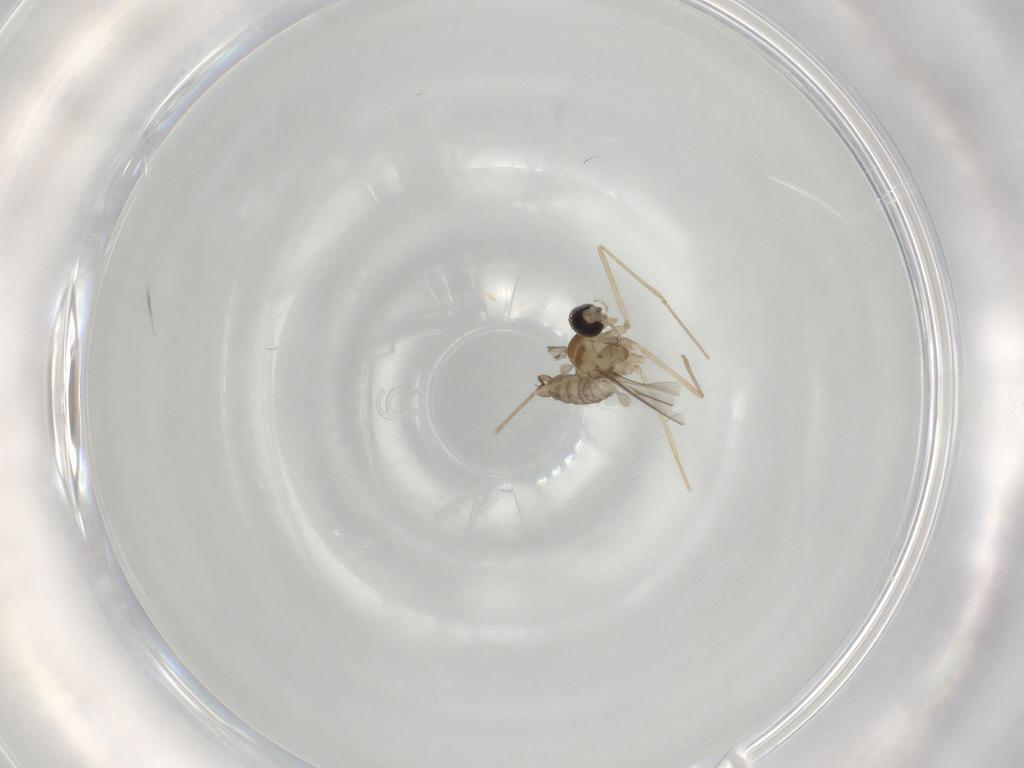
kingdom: Animalia
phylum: Arthropoda
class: Insecta
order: Diptera
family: Cecidomyiidae
